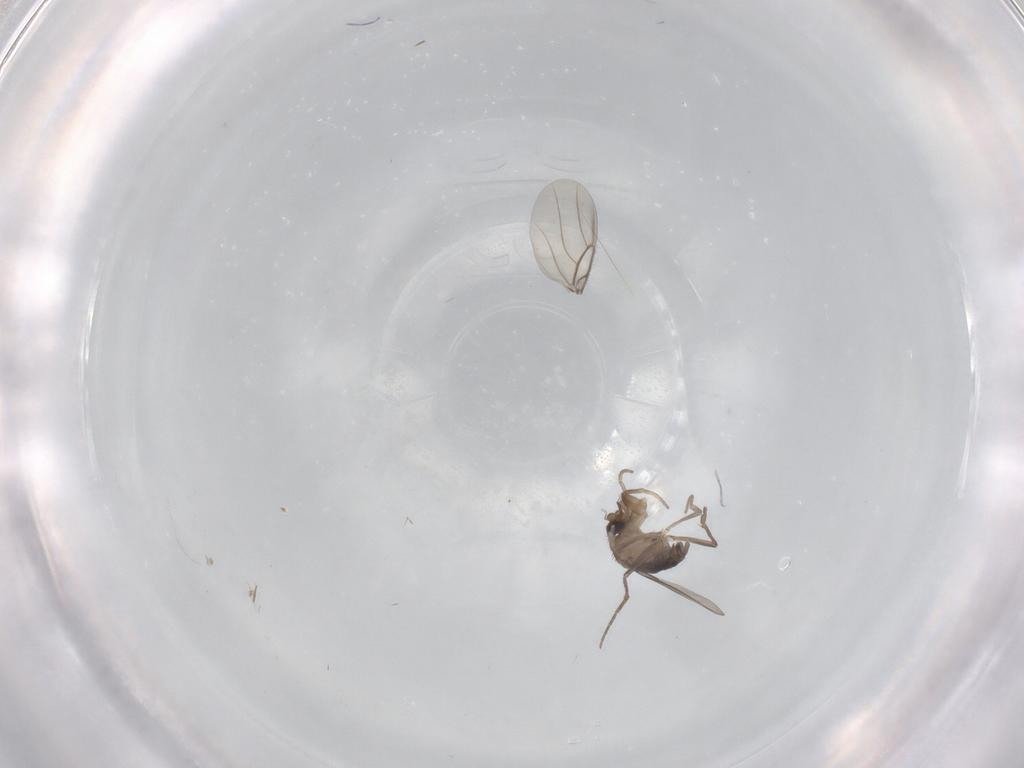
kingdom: Animalia
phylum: Arthropoda
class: Insecta
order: Diptera
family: Phoridae
